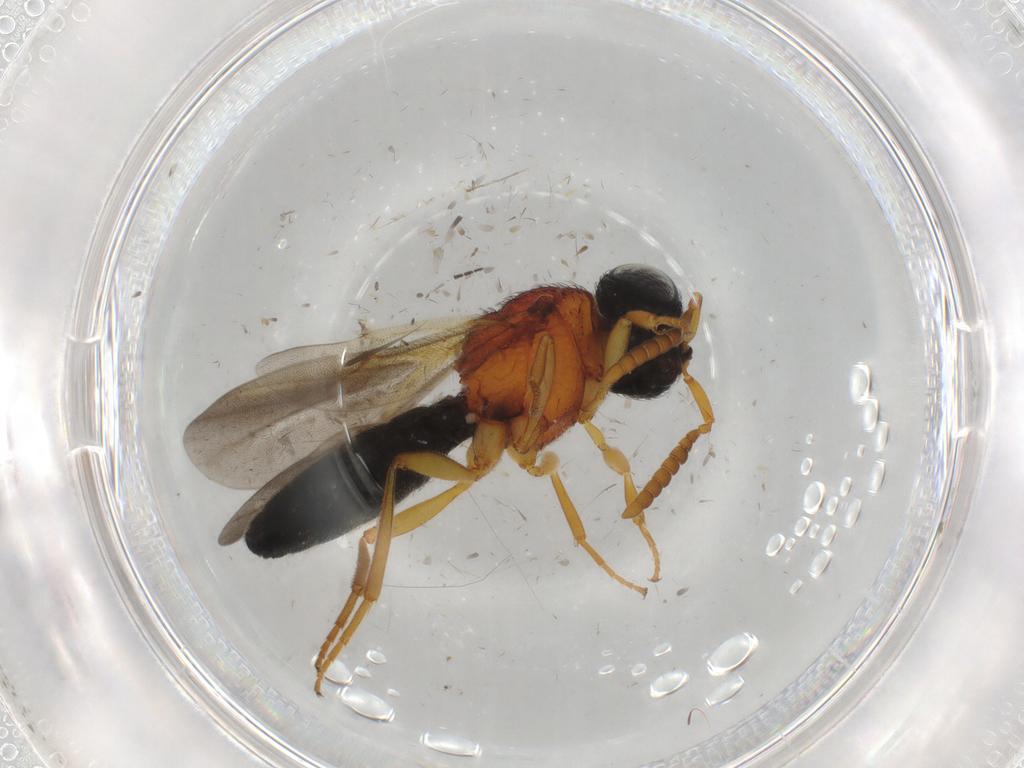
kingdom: Animalia
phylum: Arthropoda
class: Insecta
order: Hymenoptera
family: Scelionidae
